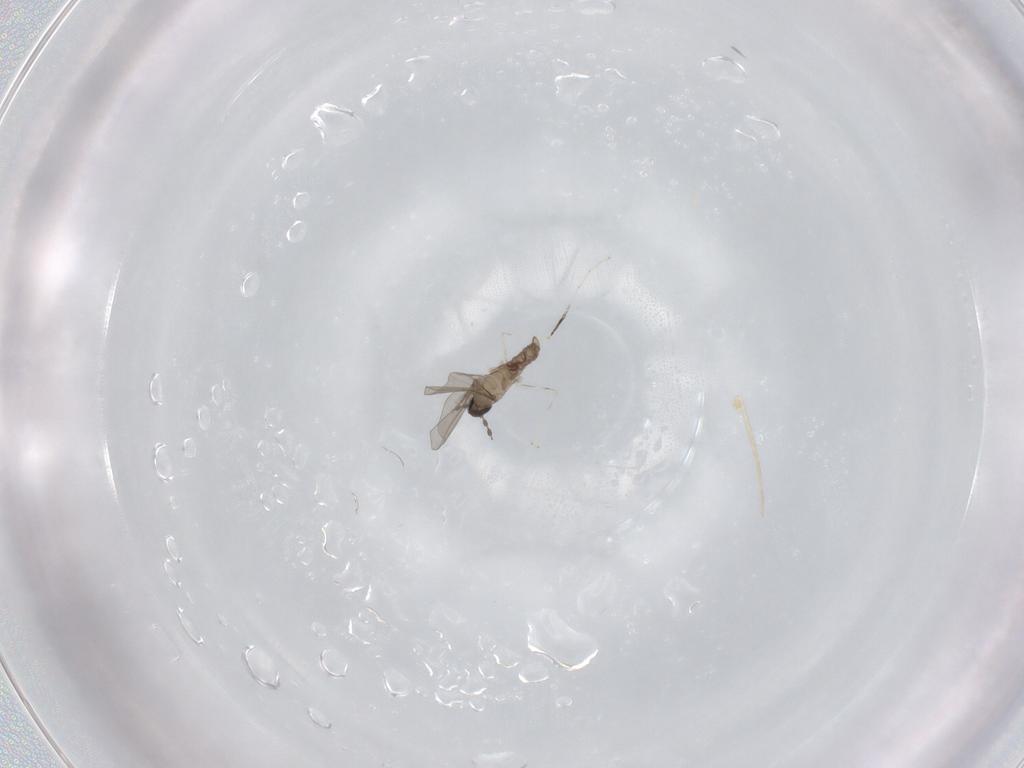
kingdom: Animalia
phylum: Arthropoda
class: Insecta
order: Diptera
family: Cecidomyiidae
